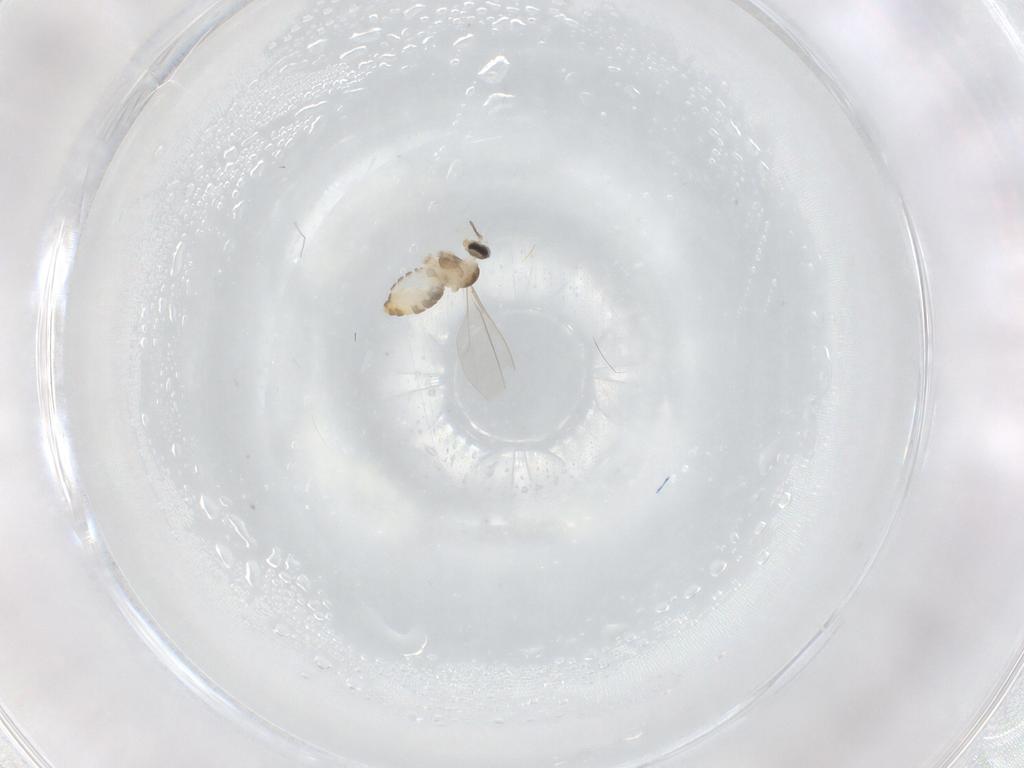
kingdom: Animalia
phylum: Arthropoda
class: Insecta
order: Diptera
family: Cecidomyiidae
